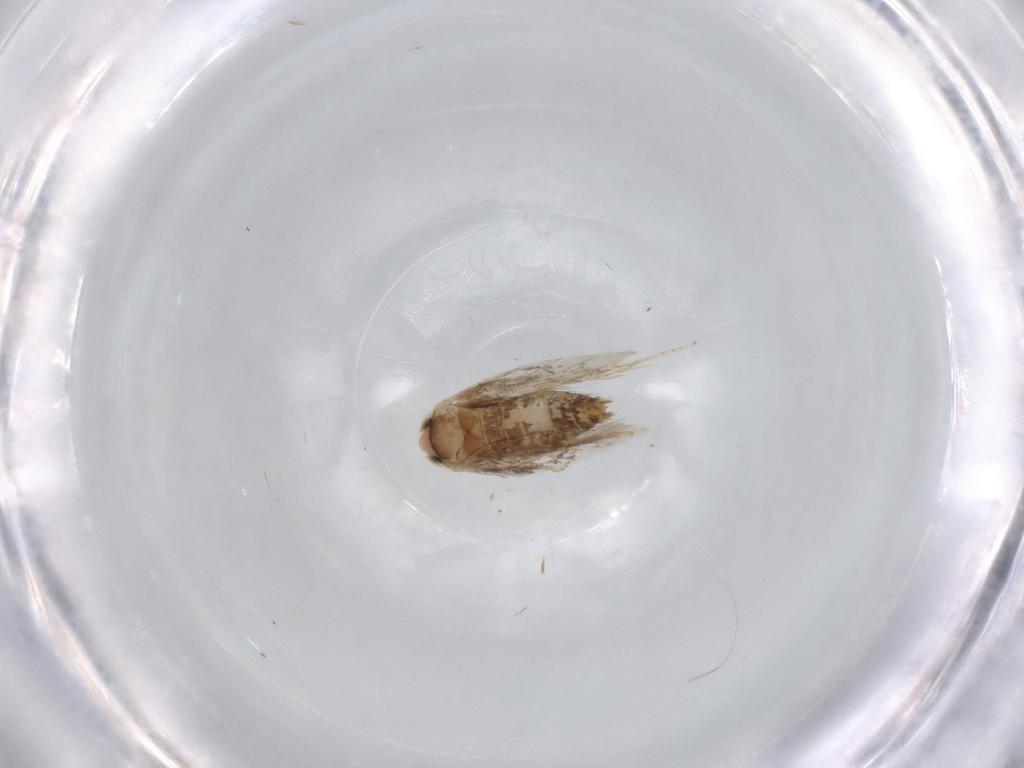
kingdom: Animalia
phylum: Arthropoda
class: Insecta
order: Lepidoptera
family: Tineidae
